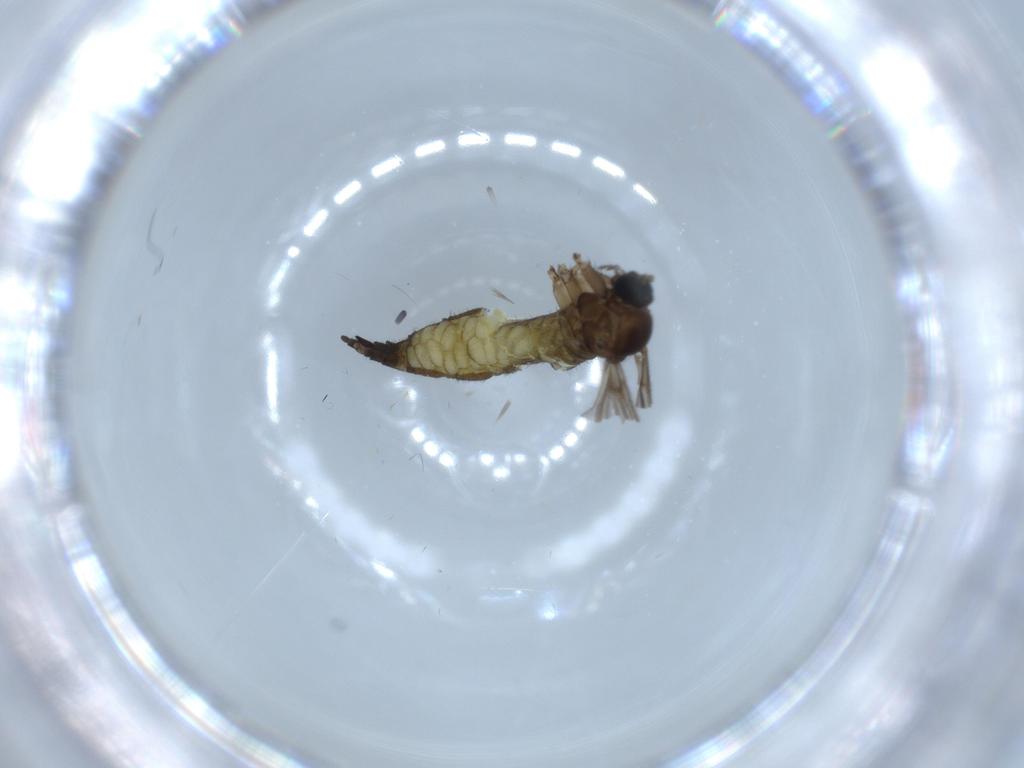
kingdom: Animalia
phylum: Arthropoda
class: Insecta
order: Diptera
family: Sciaridae
